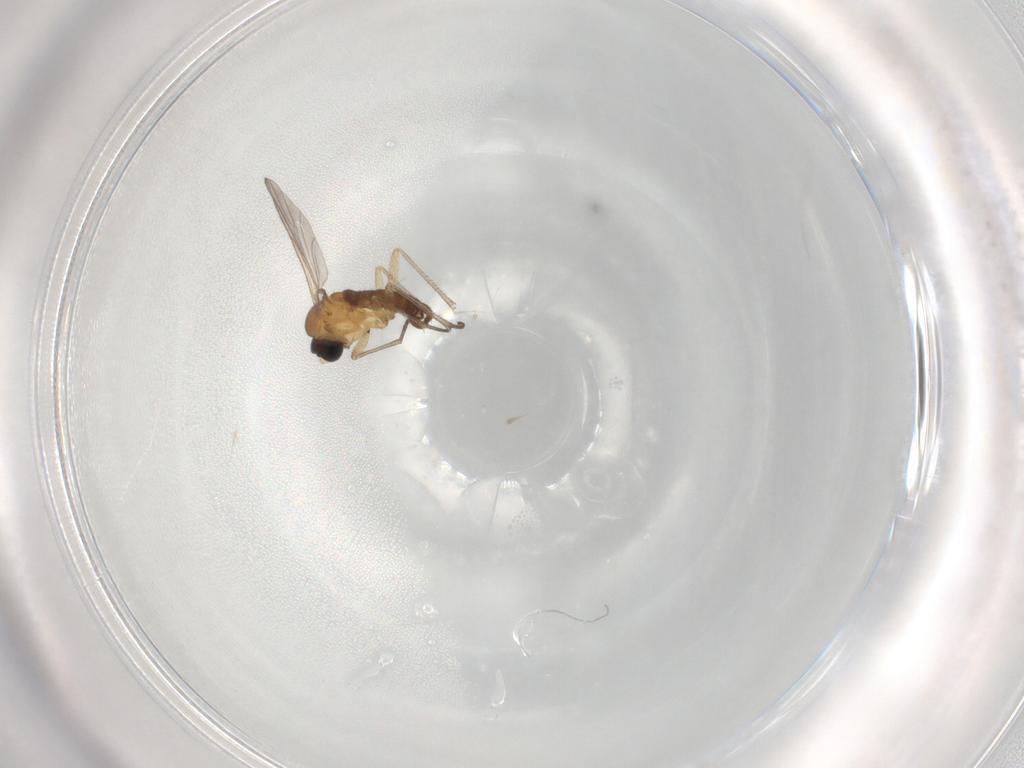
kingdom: Animalia
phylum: Arthropoda
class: Insecta
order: Diptera
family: Sciaridae
